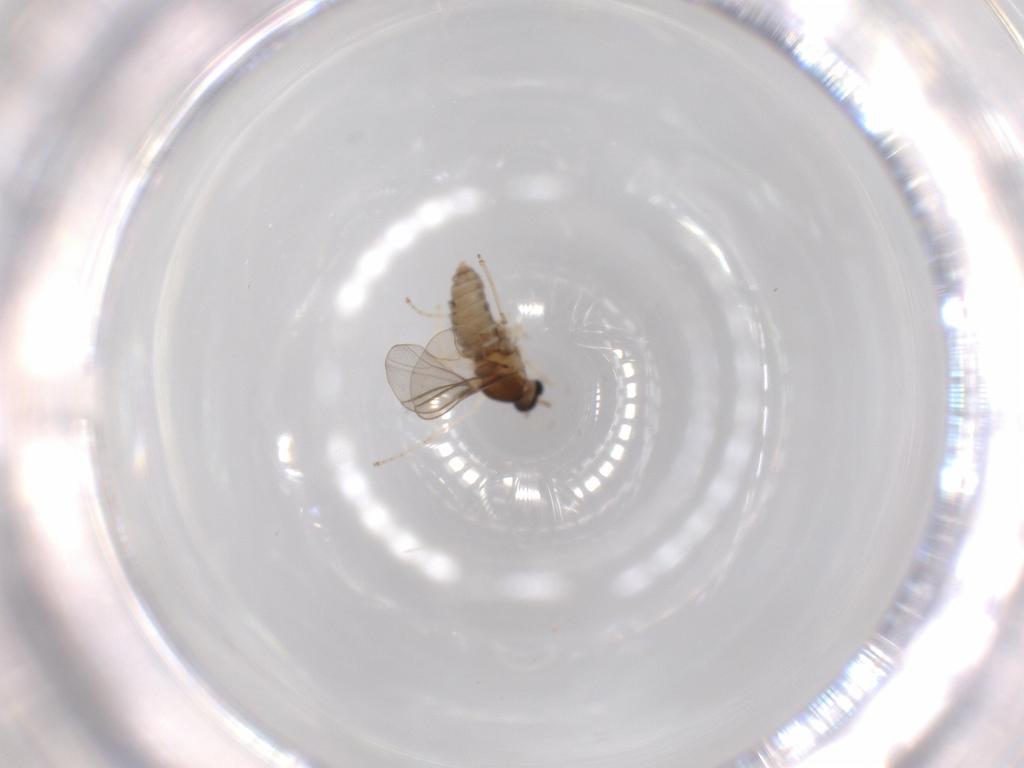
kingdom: Animalia
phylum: Arthropoda
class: Insecta
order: Diptera
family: Cecidomyiidae
